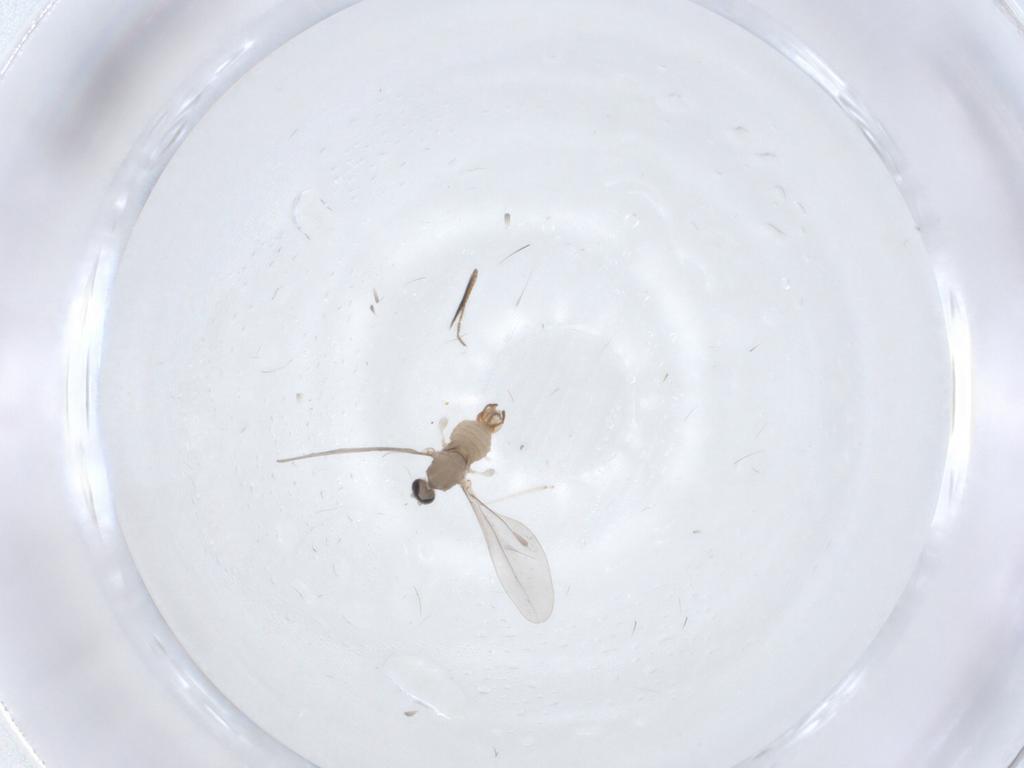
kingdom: Animalia
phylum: Arthropoda
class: Insecta
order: Diptera
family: Cecidomyiidae
